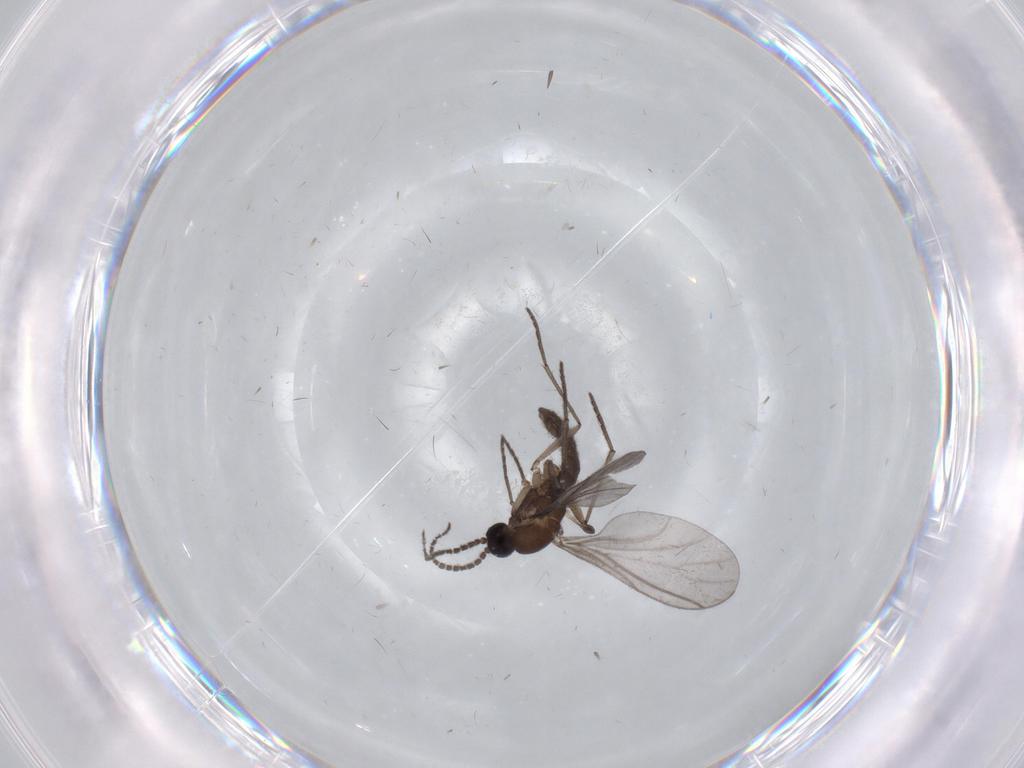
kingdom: Animalia
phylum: Arthropoda
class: Insecta
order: Diptera
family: Sciaridae
